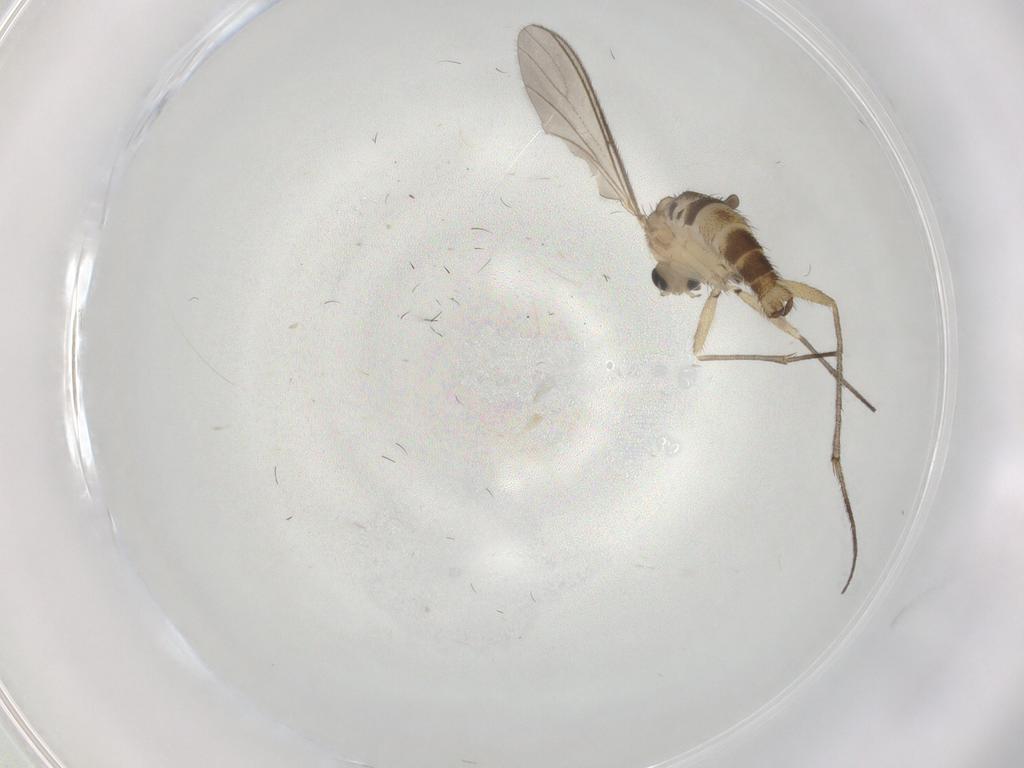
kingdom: Animalia
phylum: Arthropoda
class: Insecta
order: Diptera
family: Sciaridae
